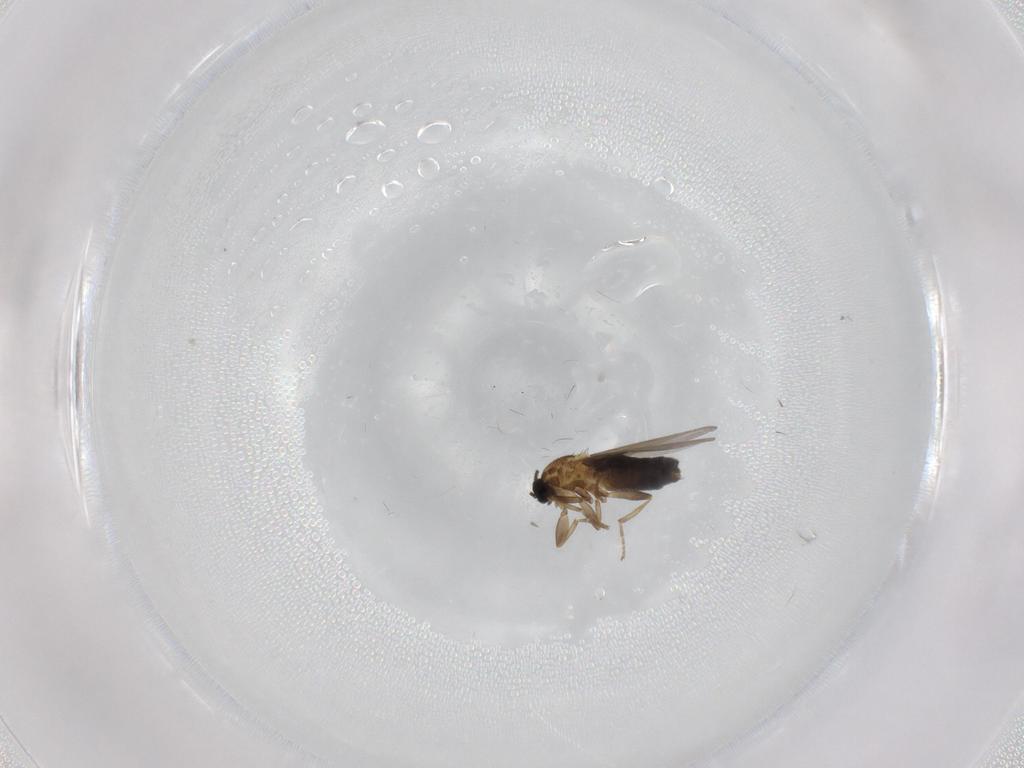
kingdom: Animalia
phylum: Arthropoda
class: Insecta
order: Diptera
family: Scatopsidae
